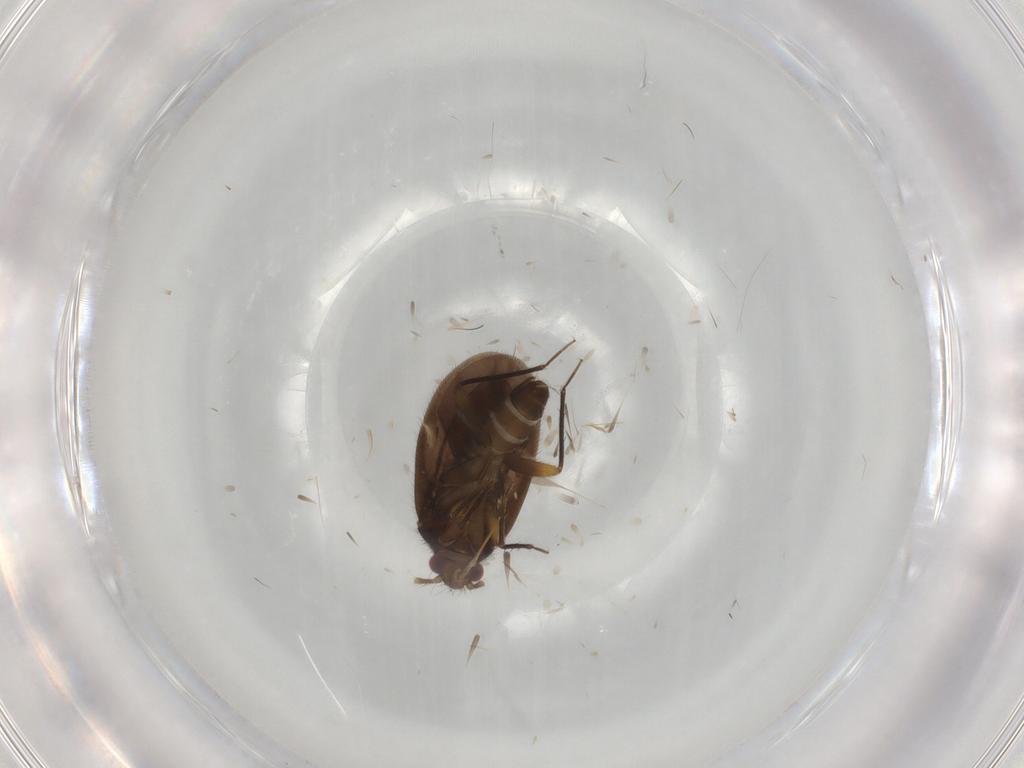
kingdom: Animalia
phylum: Arthropoda
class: Insecta
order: Hemiptera
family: Ceratocombidae
